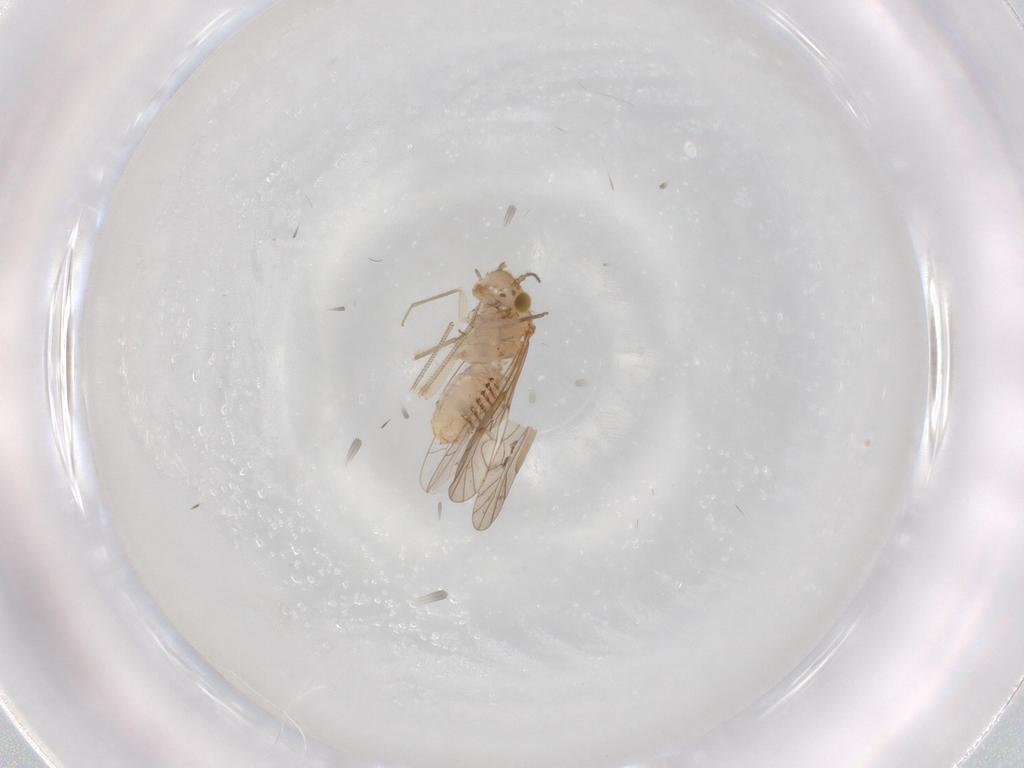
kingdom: Animalia
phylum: Arthropoda
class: Insecta
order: Psocodea
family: Lachesillidae
